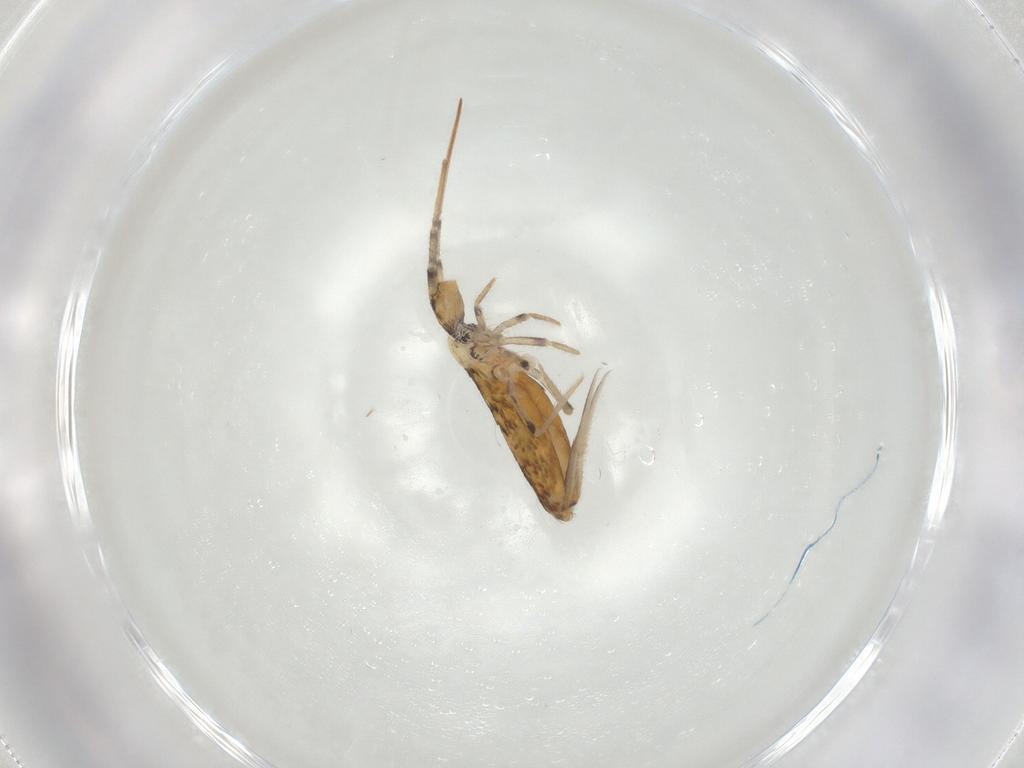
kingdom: Animalia
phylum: Arthropoda
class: Collembola
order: Entomobryomorpha
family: Entomobryidae
